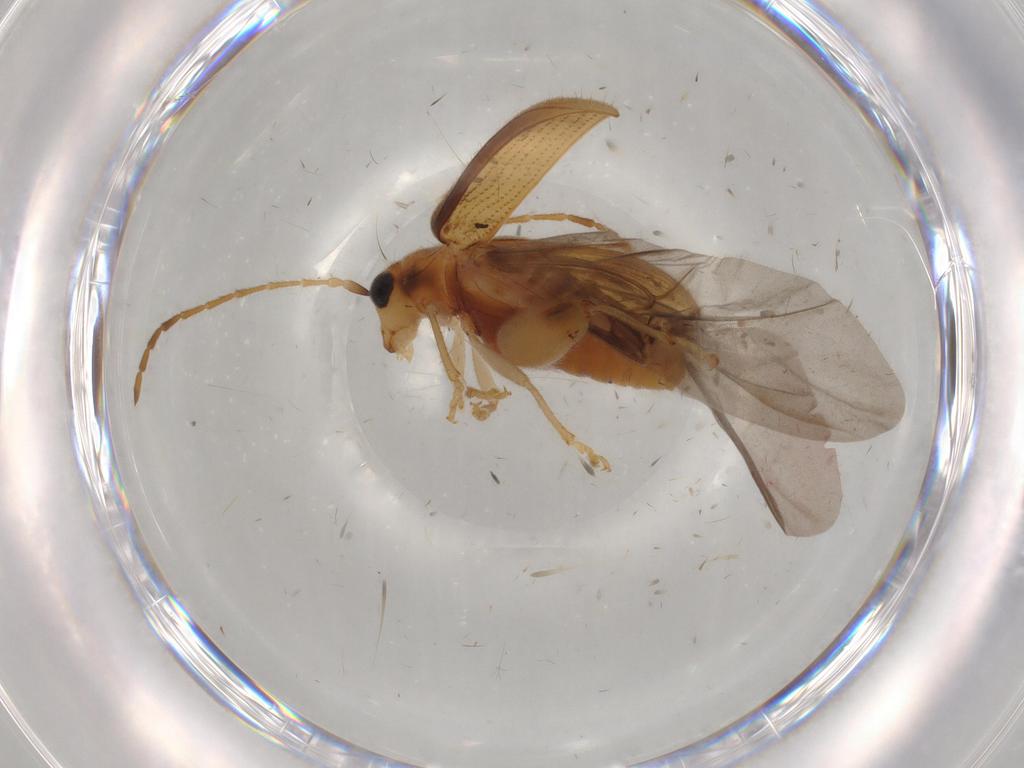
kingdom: Animalia
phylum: Arthropoda
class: Insecta
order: Coleoptera
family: Chrysomelidae
